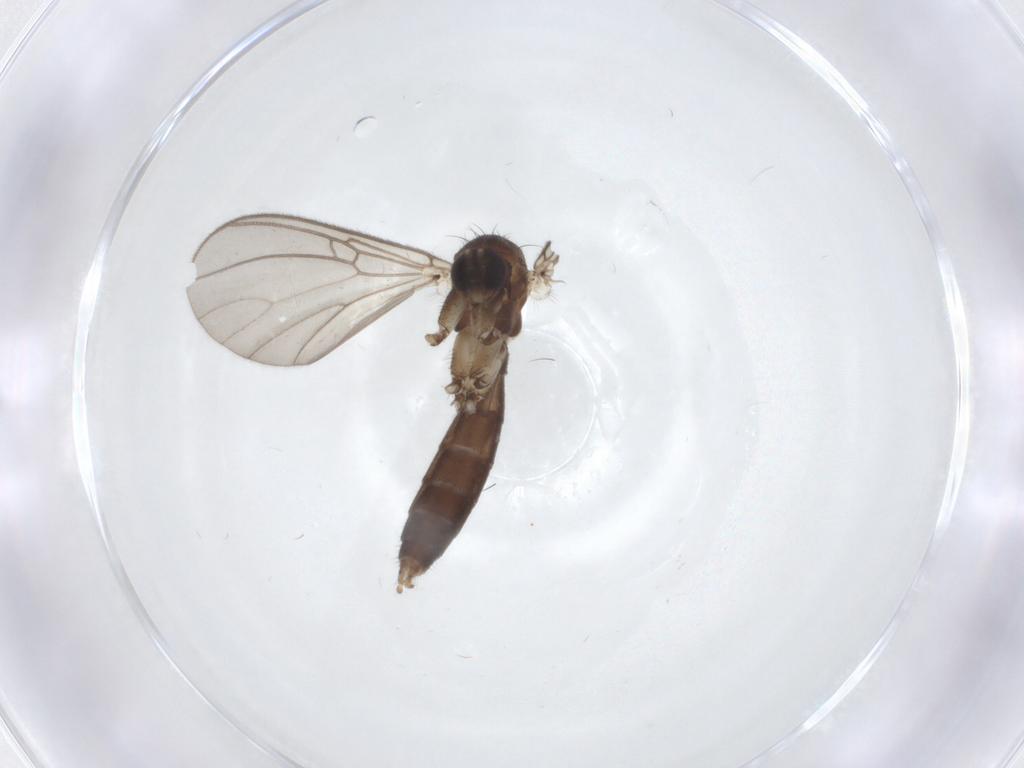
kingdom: Animalia
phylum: Arthropoda
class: Insecta
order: Diptera
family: Mycetophilidae
